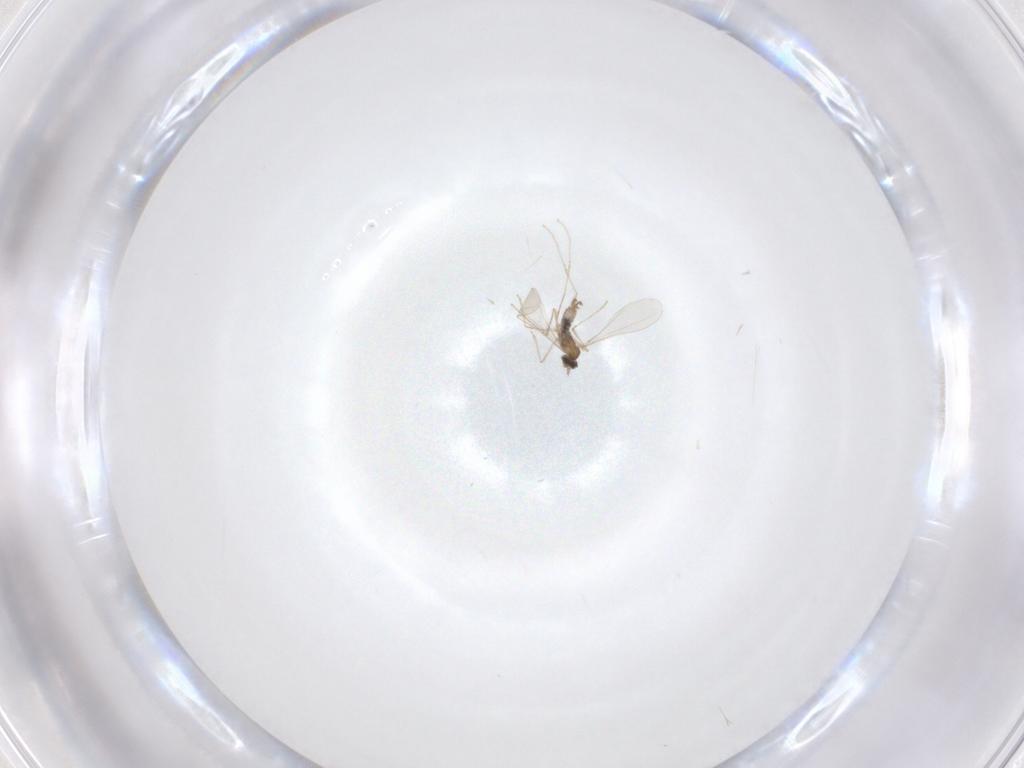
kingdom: Animalia
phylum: Arthropoda
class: Insecta
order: Diptera
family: Cecidomyiidae
